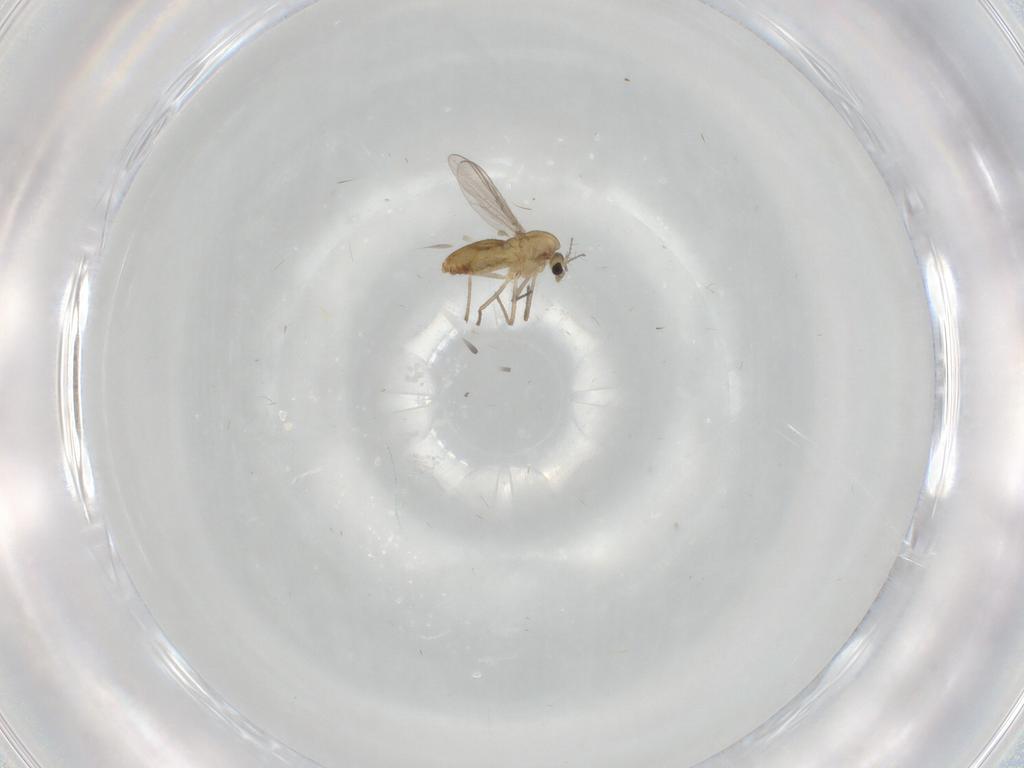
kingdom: Animalia
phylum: Arthropoda
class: Insecta
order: Diptera
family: Chironomidae
